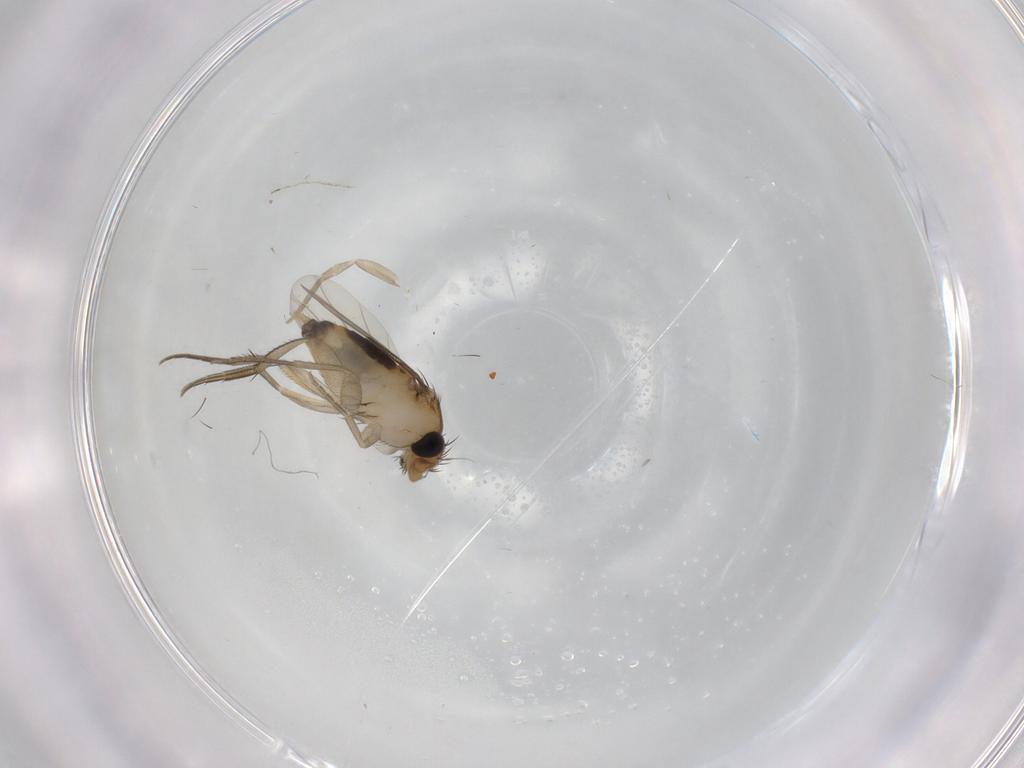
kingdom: Animalia
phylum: Arthropoda
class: Insecta
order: Diptera
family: Phoridae
